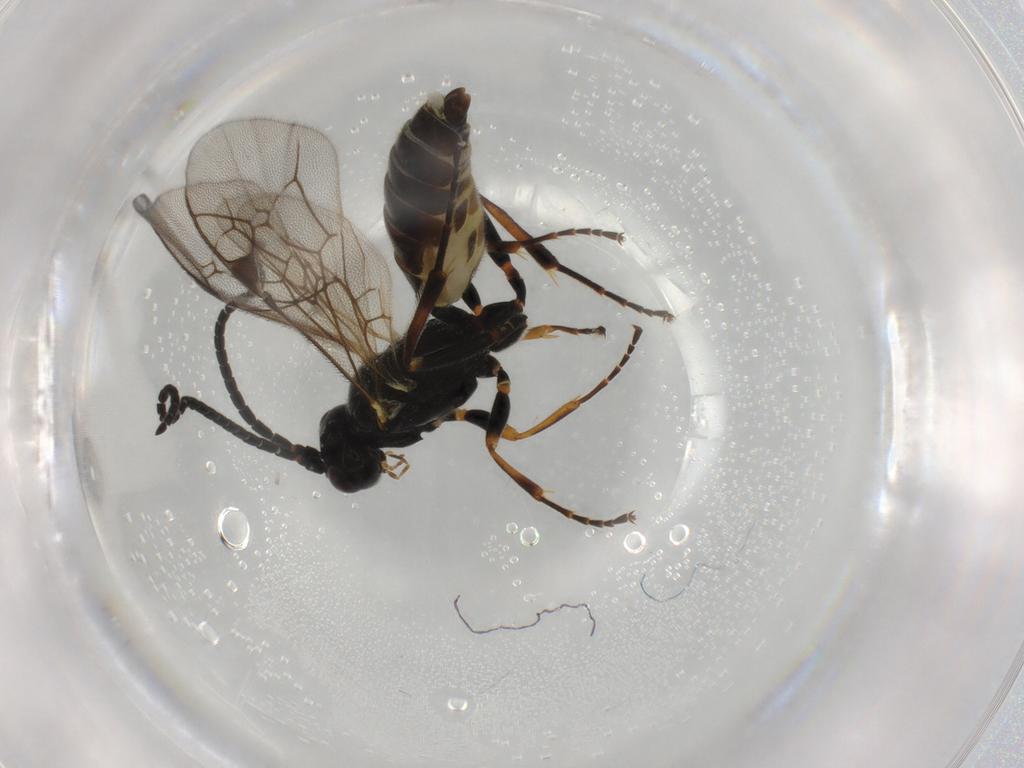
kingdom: Animalia
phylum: Arthropoda
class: Insecta
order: Hymenoptera
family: Ichneumonidae
